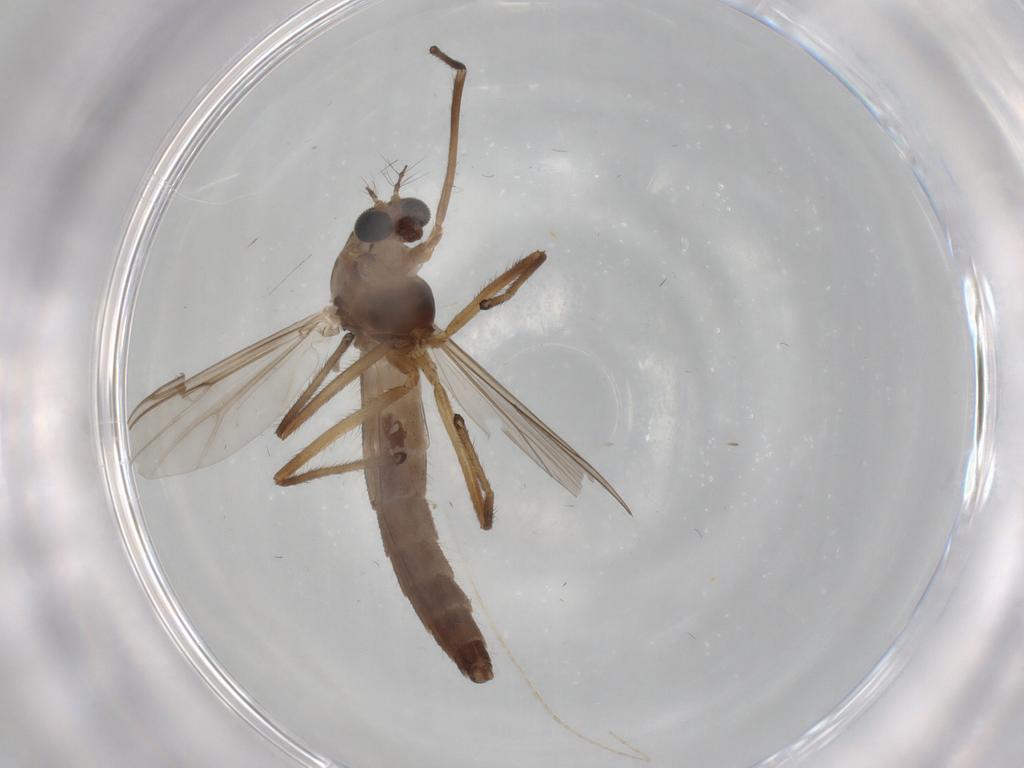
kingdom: Animalia
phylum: Arthropoda
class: Insecta
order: Diptera
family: Chironomidae
